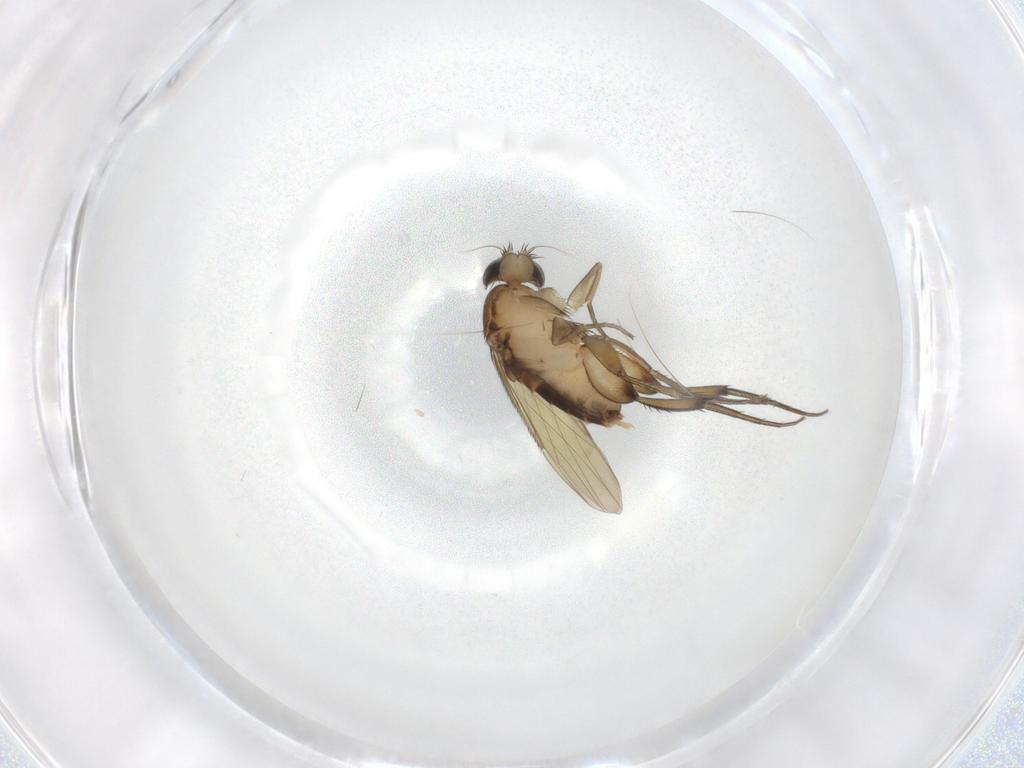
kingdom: Animalia
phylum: Arthropoda
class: Insecta
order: Diptera
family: Phoridae
